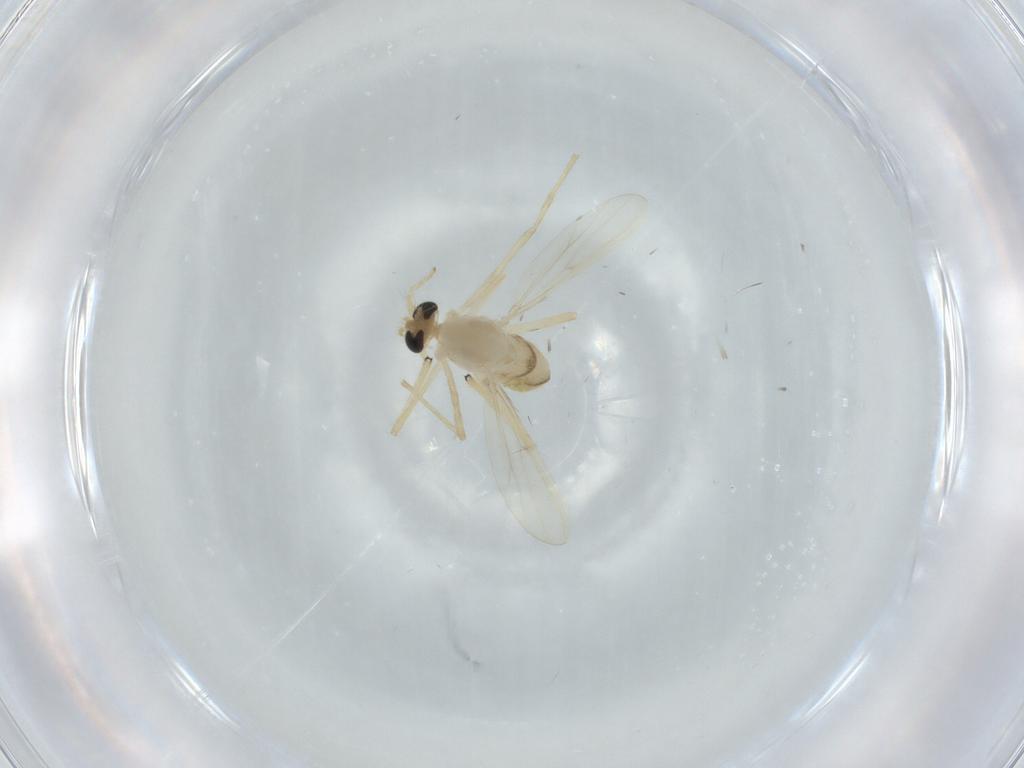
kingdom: Animalia
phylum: Arthropoda
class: Insecta
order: Diptera
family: Chironomidae
